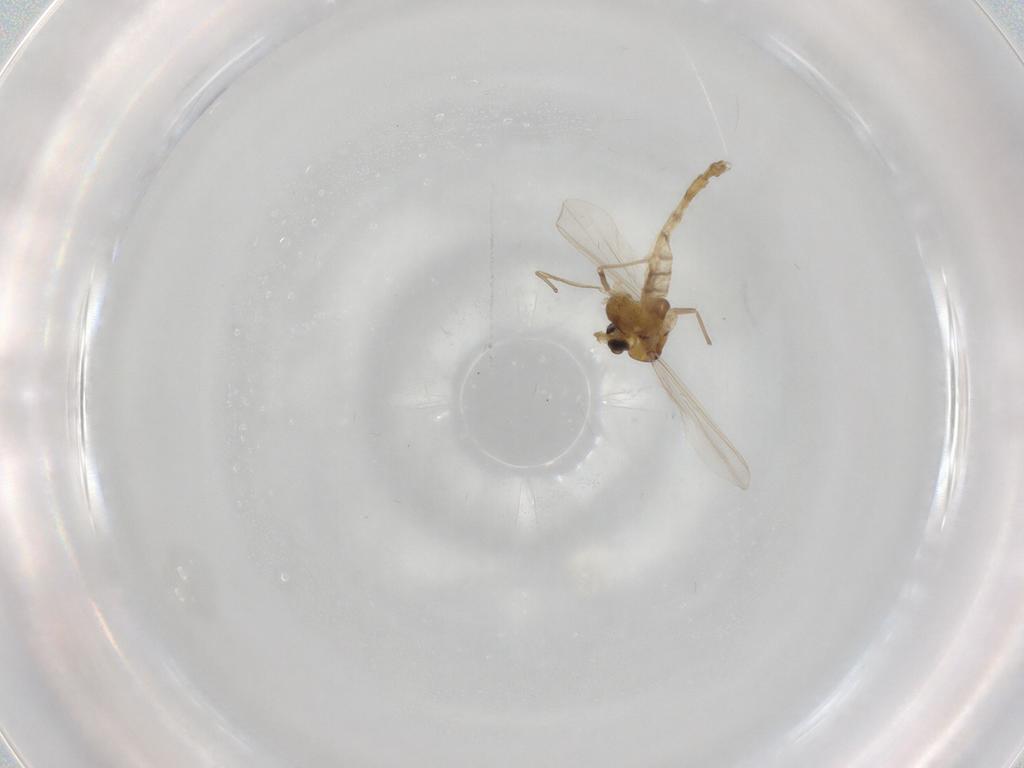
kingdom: Animalia
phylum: Arthropoda
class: Insecta
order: Diptera
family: Chironomidae
